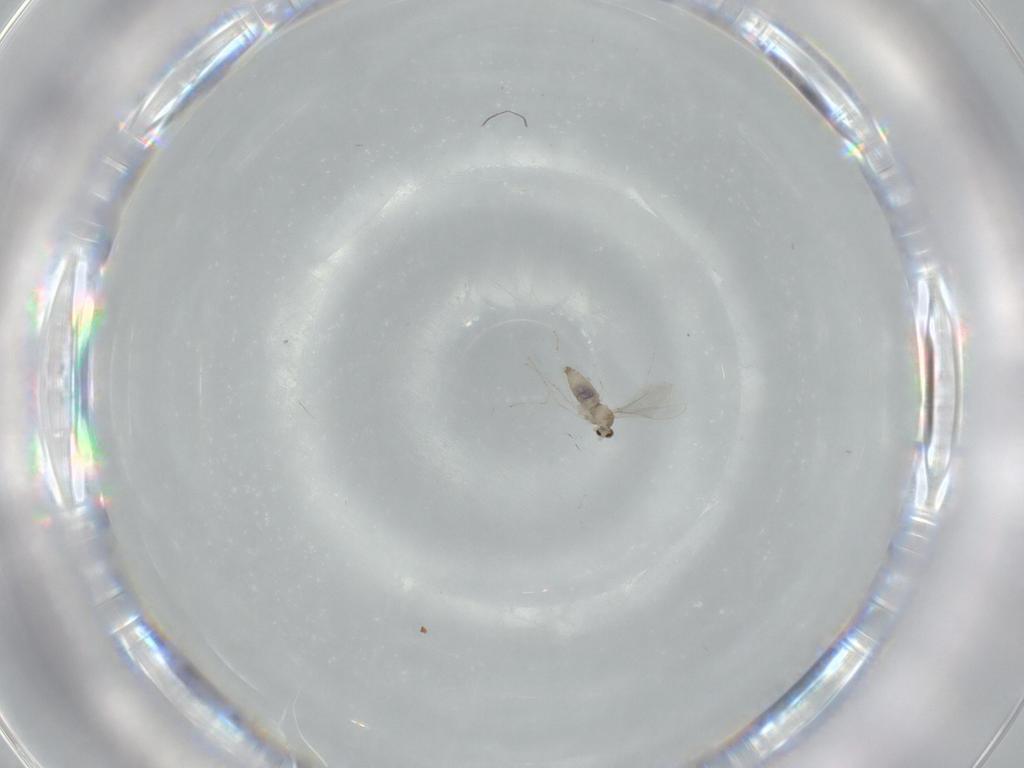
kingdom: Animalia
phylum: Arthropoda
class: Insecta
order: Diptera
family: Cecidomyiidae
